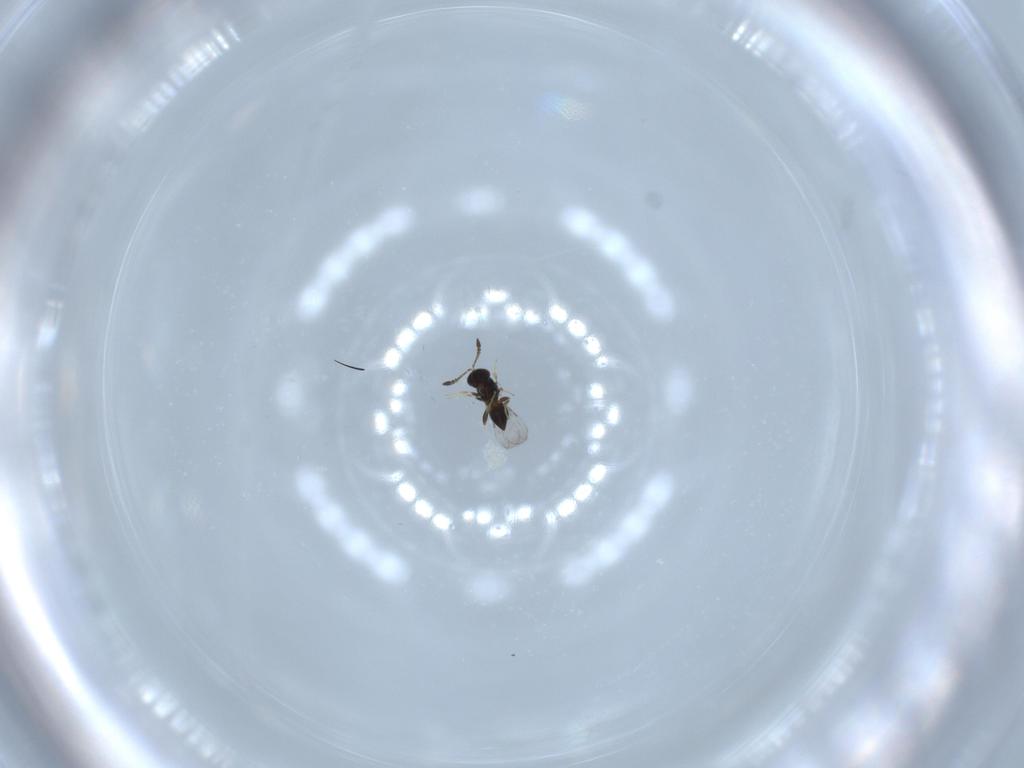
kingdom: Animalia
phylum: Arthropoda
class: Insecta
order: Hymenoptera
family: Aphelinidae
